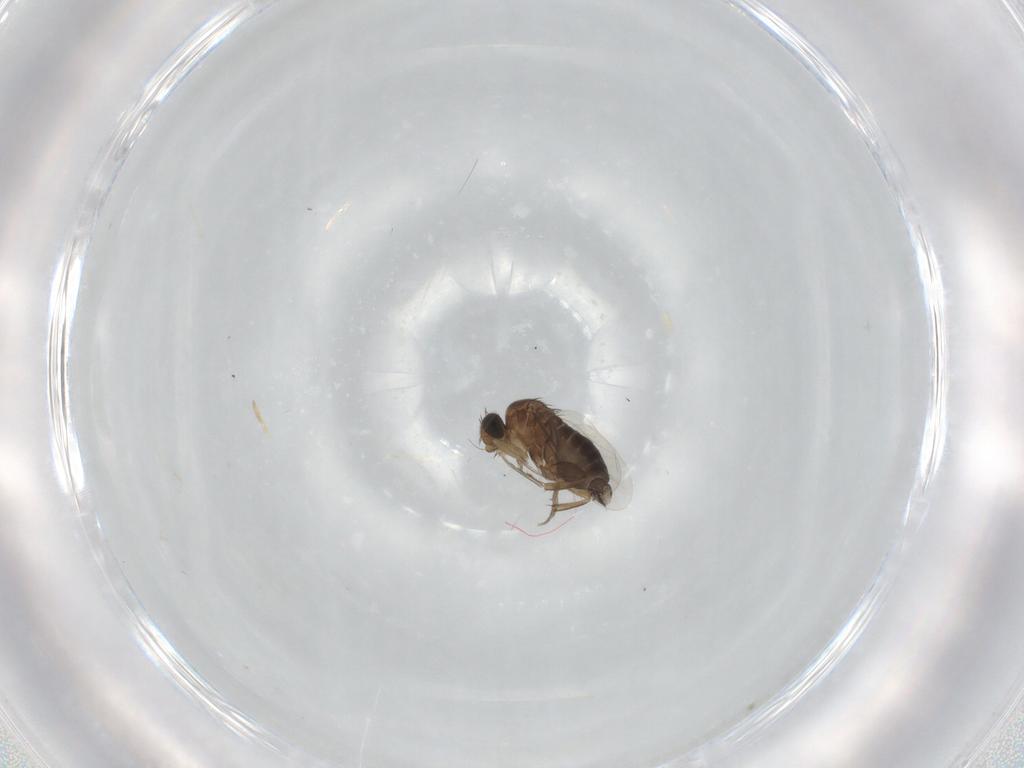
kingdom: Animalia
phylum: Arthropoda
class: Insecta
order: Diptera
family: Phoridae
